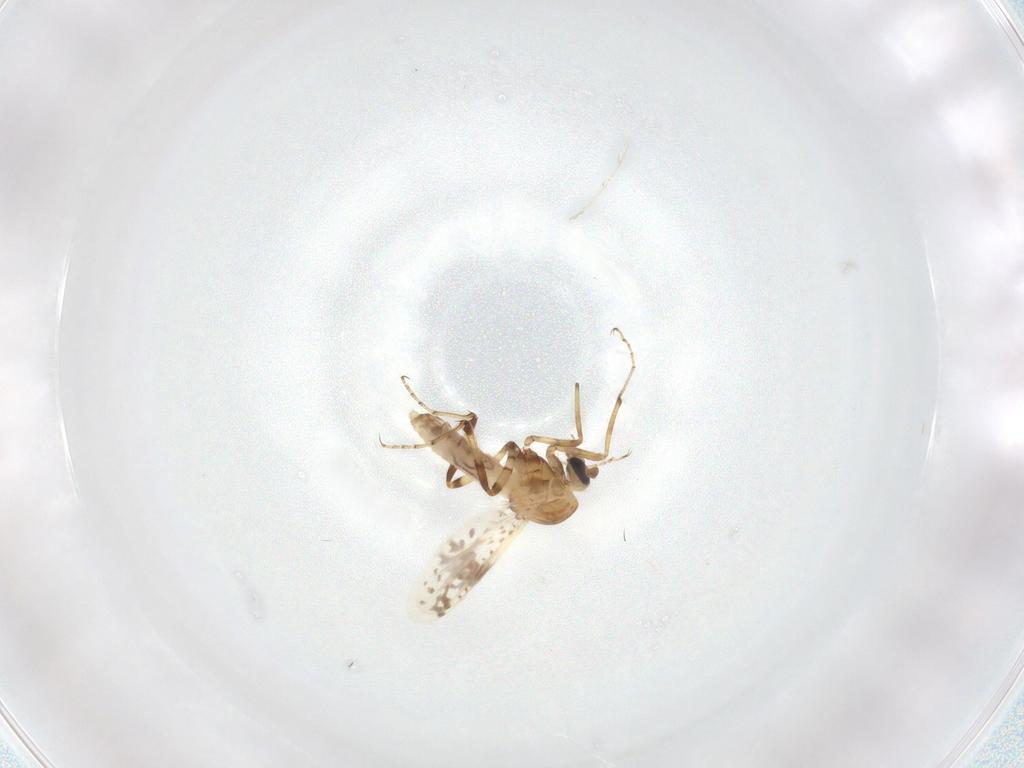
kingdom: Animalia
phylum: Arthropoda
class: Insecta
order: Diptera
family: Ceratopogonidae
